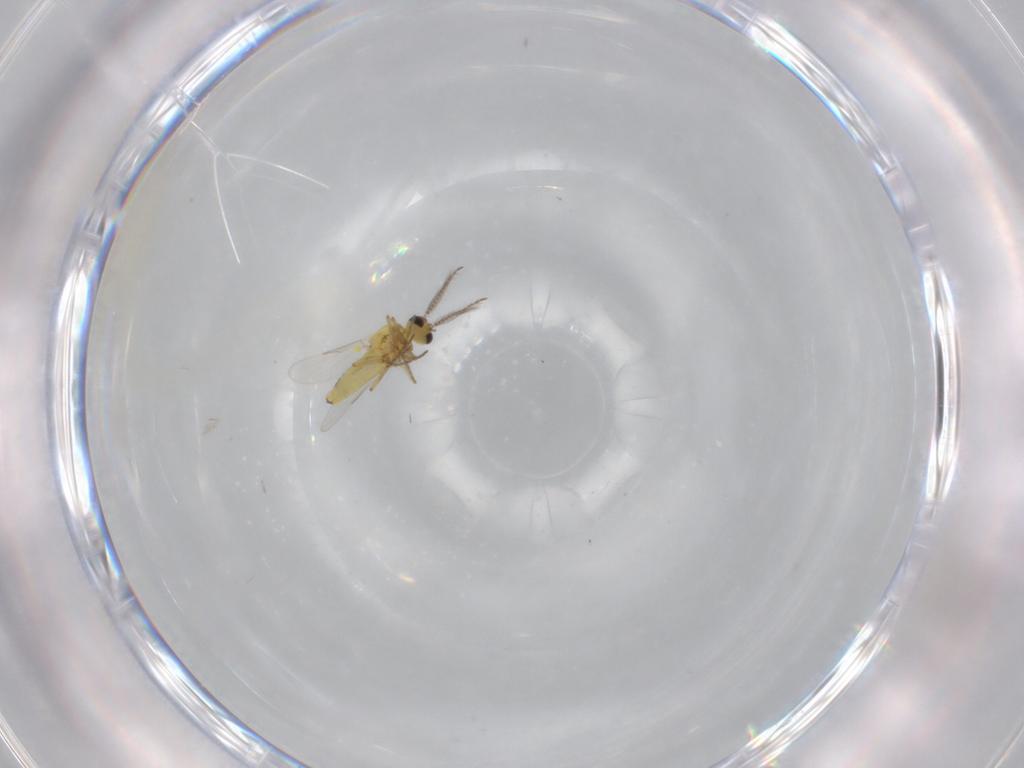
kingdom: Animalia
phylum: Arthropoda
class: Insecta
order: Diptera
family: Ceratopogonidae
